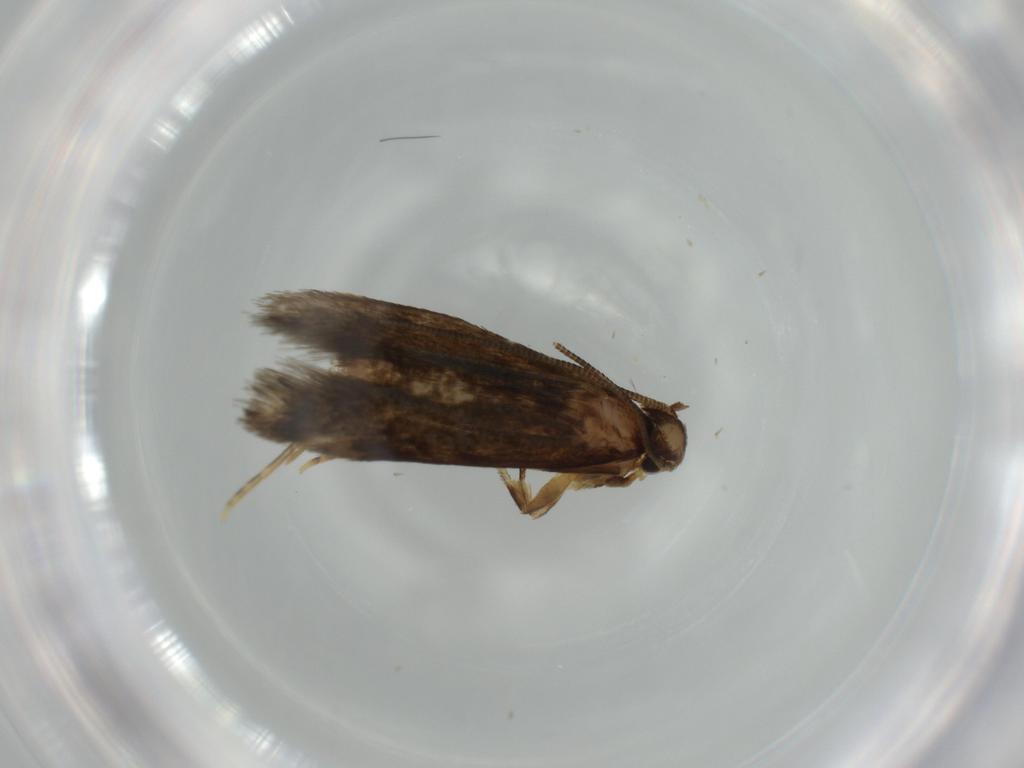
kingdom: Animalia
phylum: Arthropoda
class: Insecta
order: Lepidoptera
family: Tineidae
